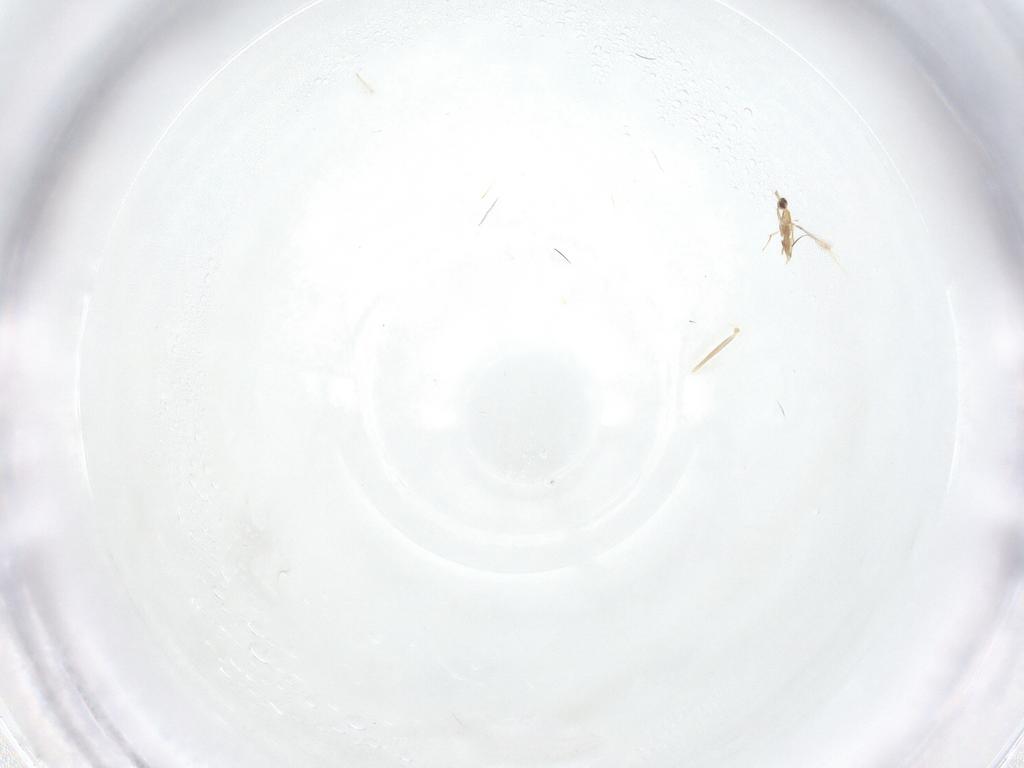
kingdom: Animalia
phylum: Arthropoda
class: Insecta
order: Hymenoptera
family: Mymaridae
